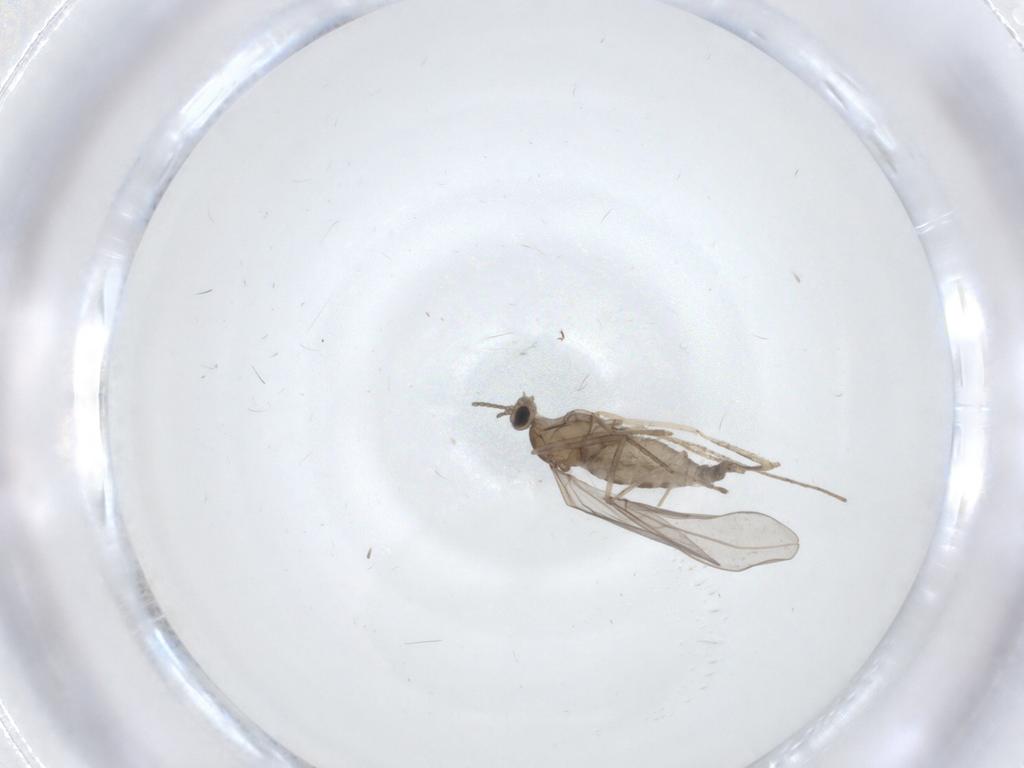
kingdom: Animalia
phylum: Arthropoda
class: Insecta
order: Diptera
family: Cecidomyiidae
